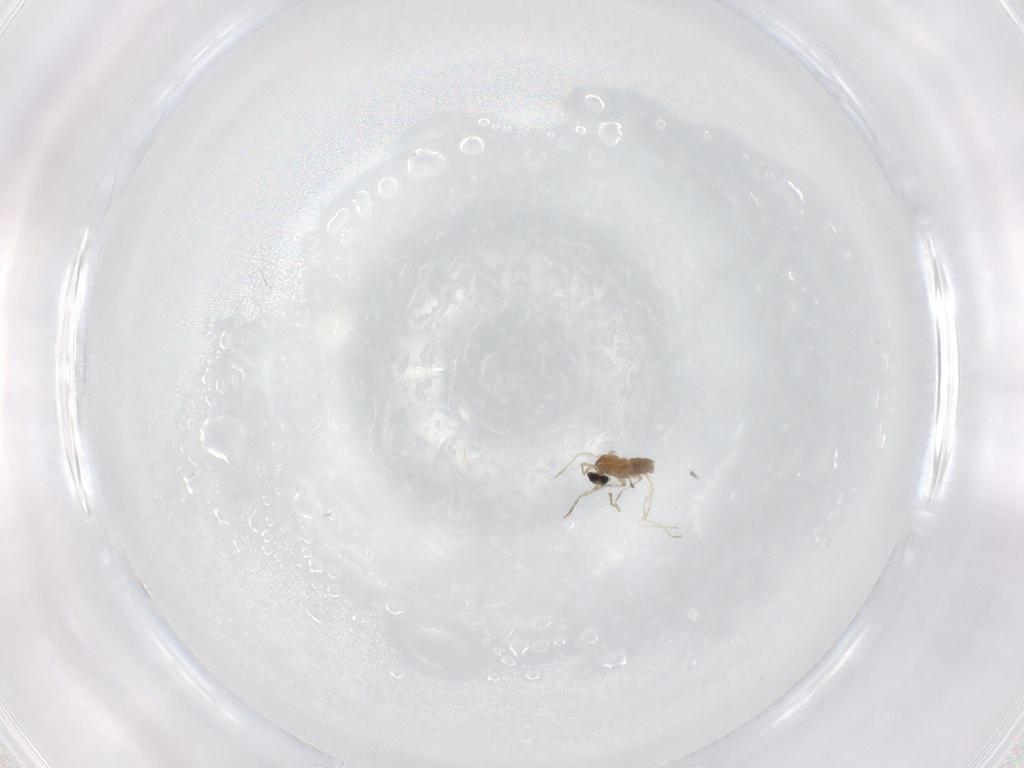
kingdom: Animalia
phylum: Arthropoda
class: Insecta
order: Diptera
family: Cecidomyiidae
